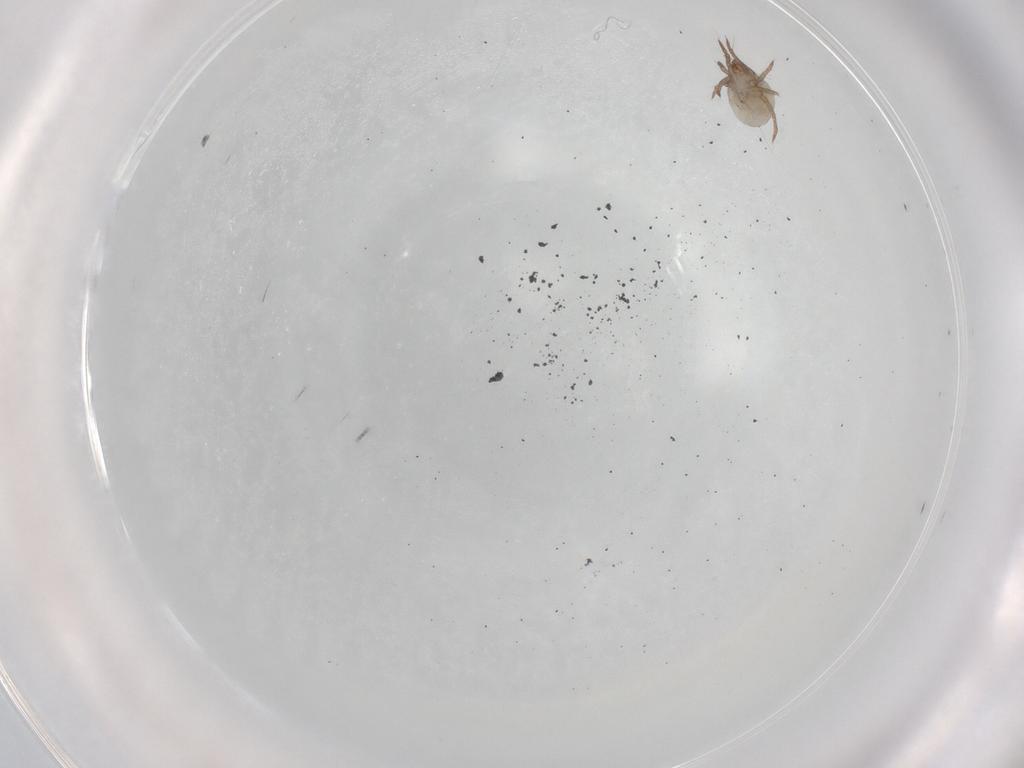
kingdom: Animalia
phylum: Arthropoda
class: Arachnida
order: Sarcoptiformes
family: Ceratoppiidae
